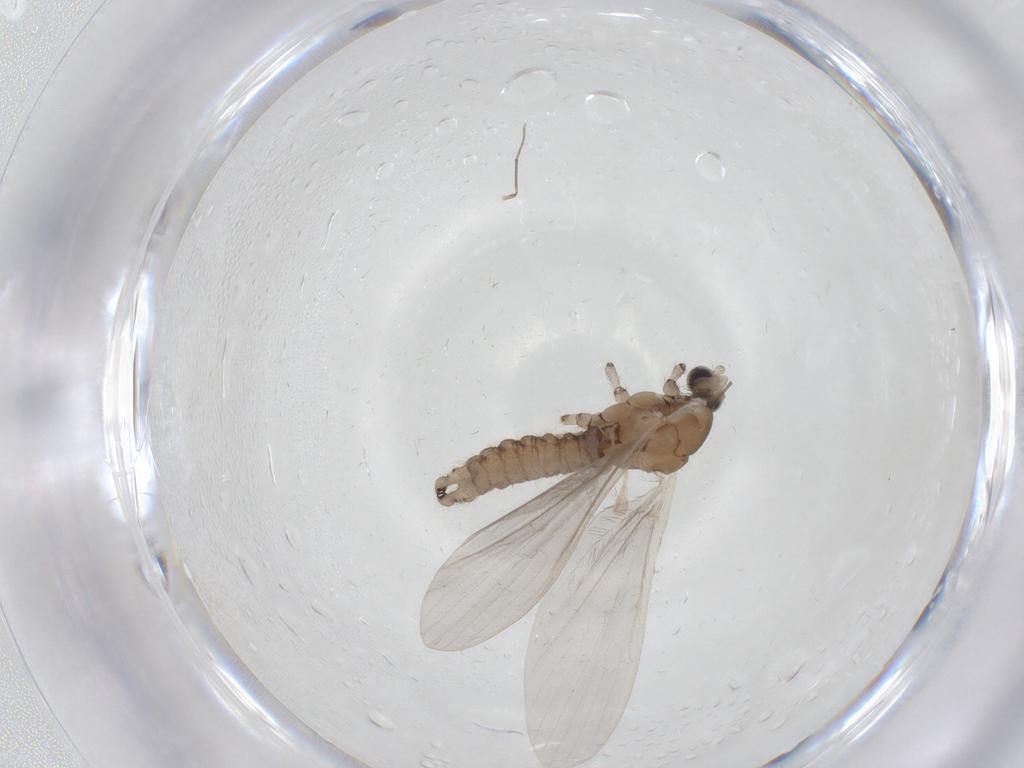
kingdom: Animalia
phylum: Arthropoda
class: Insecta
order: Diptera
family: Limoniidae
